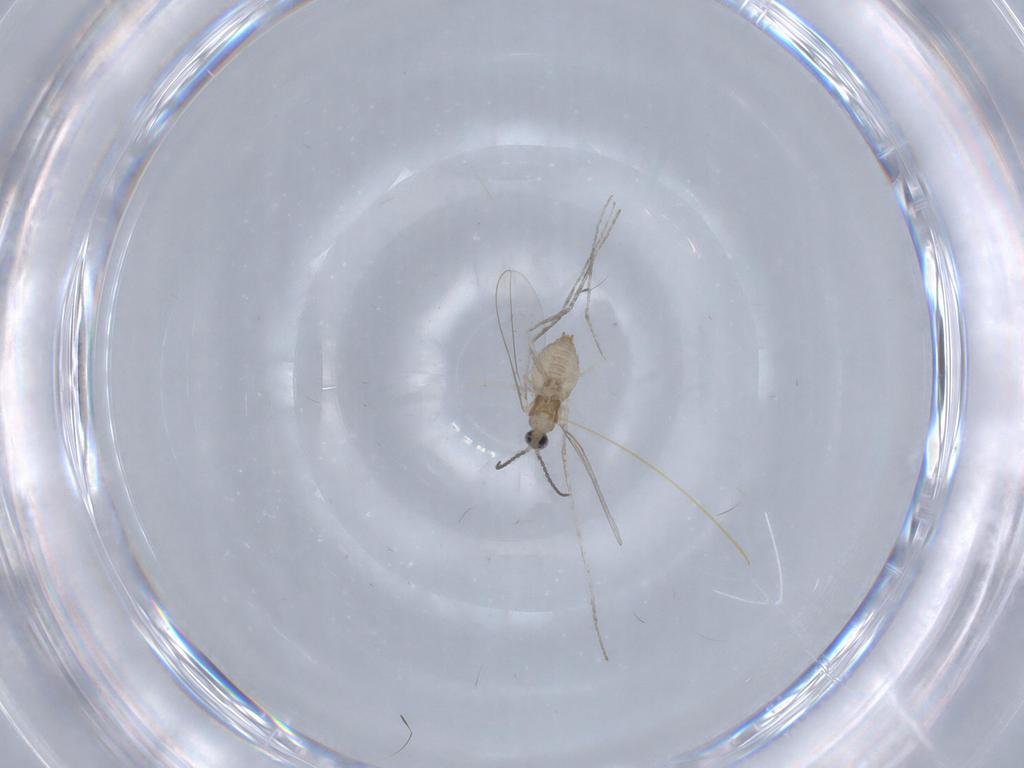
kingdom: Animalia
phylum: Arthropoda
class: Insecta
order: Diptera
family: Cecidomyiidae
